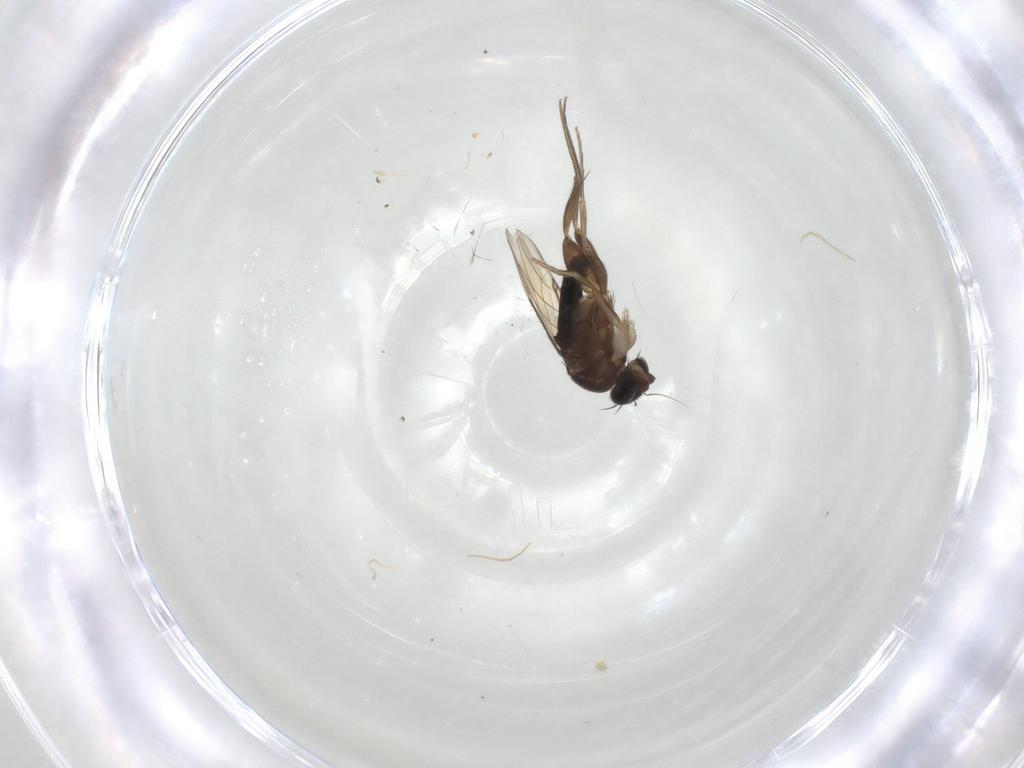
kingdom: Animalia
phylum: Arthropoda
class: Insecta
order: Diptera
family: Phoridae
